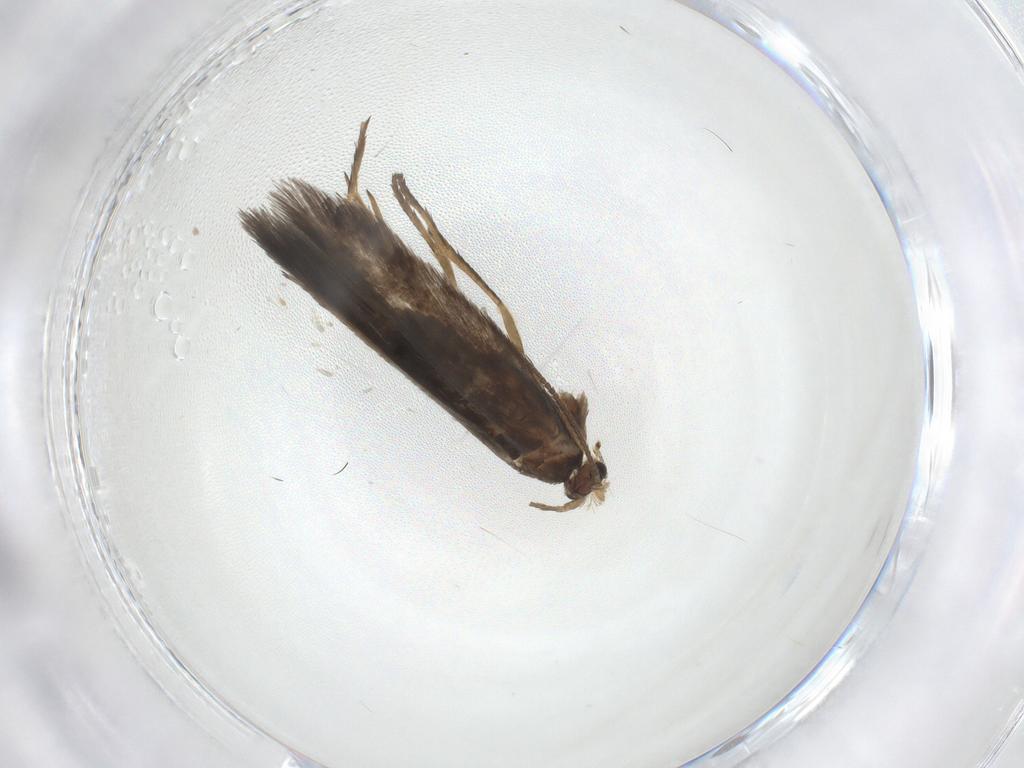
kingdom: Animalia
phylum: Arthropoda
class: Insecta
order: Lepidoptera
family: Nepticulidae
